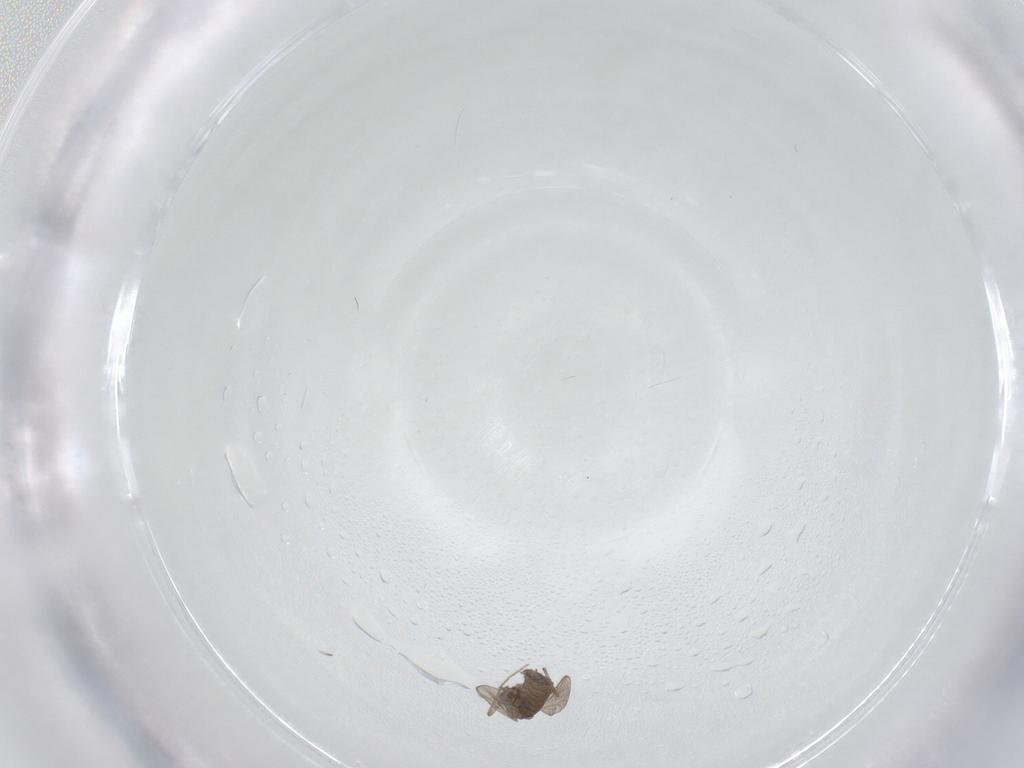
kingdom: Animalia
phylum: Arthropoda
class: Insecta
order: Diptera
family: Chironomidae
